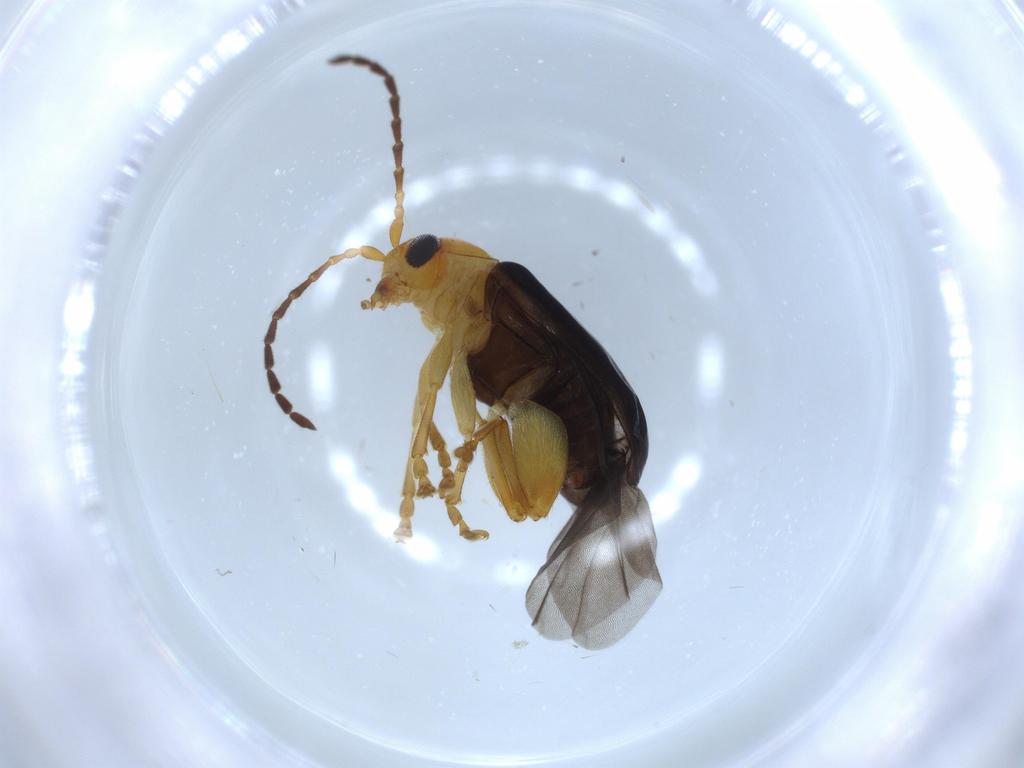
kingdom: Animalia
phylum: Arthropoda
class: Insecta
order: Coleoptera
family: Chrysomelidae
